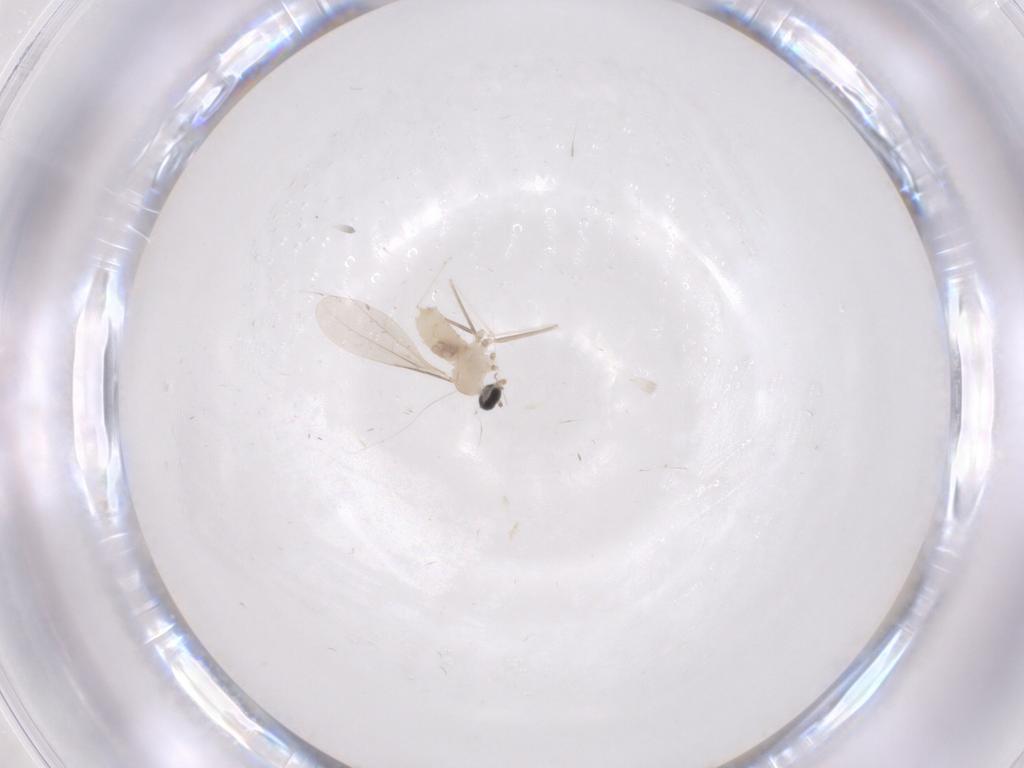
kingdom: Animalia
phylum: Arthropoda
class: Insecta
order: Diptera
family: Cecidomyiidae
